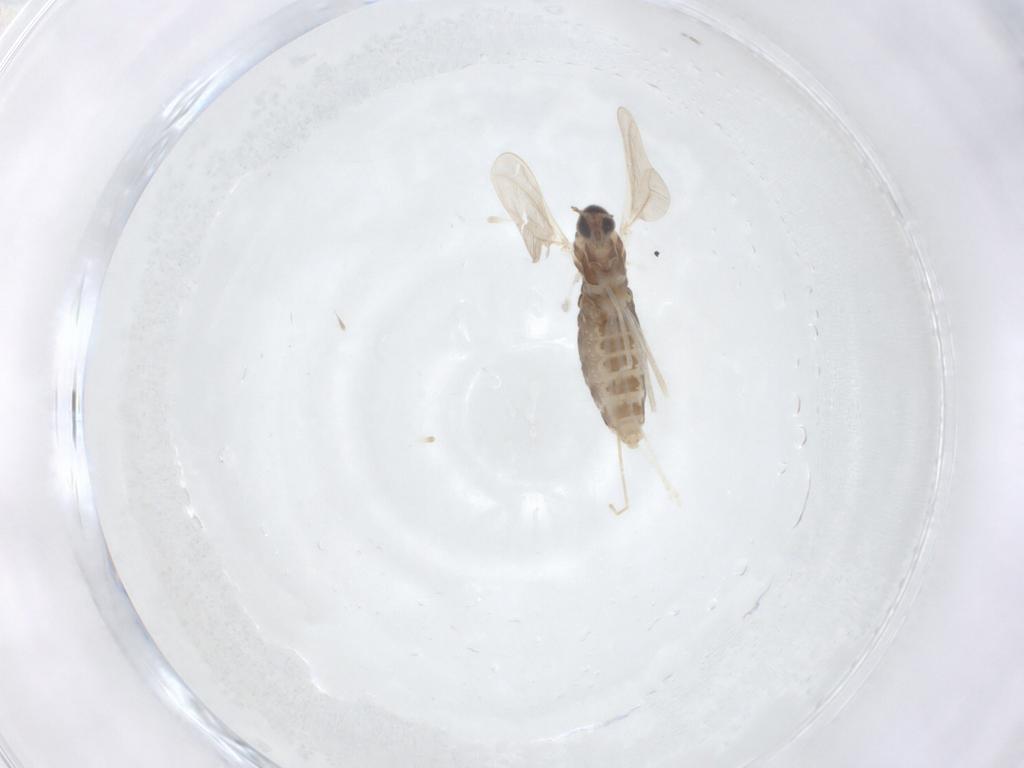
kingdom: Animalia
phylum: Arthropoda
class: Insecta
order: Diptera
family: Cecidomyiidae
